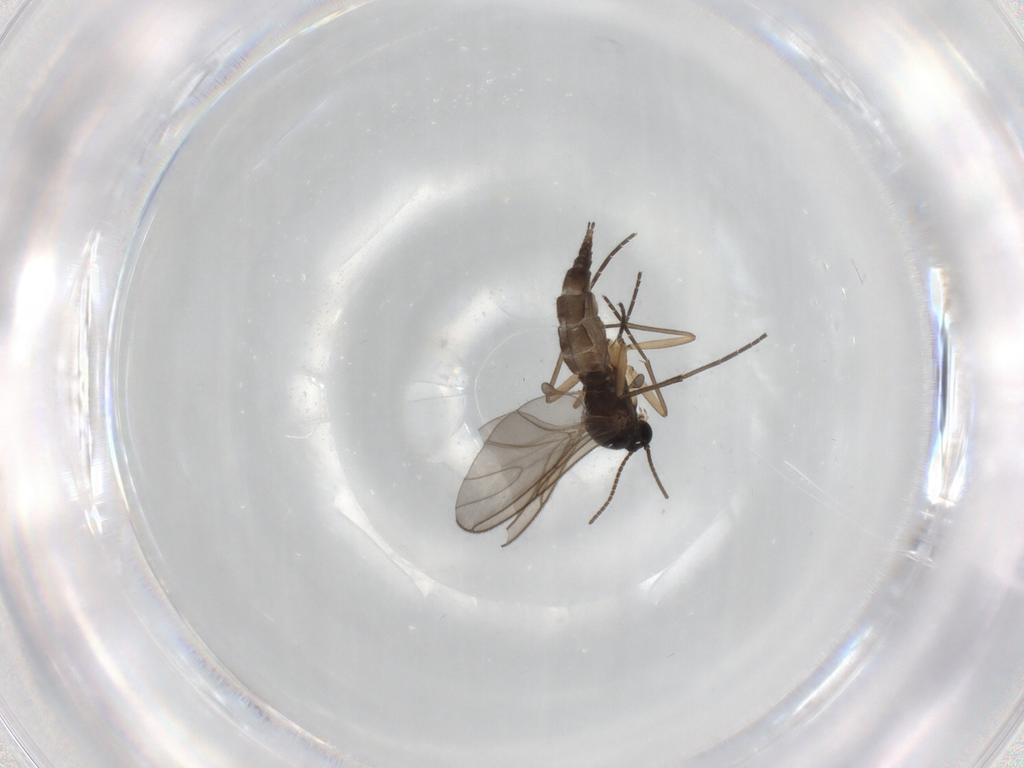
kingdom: Animalia
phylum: Arthropoda
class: Insecta
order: Diptera
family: Sciaridae
